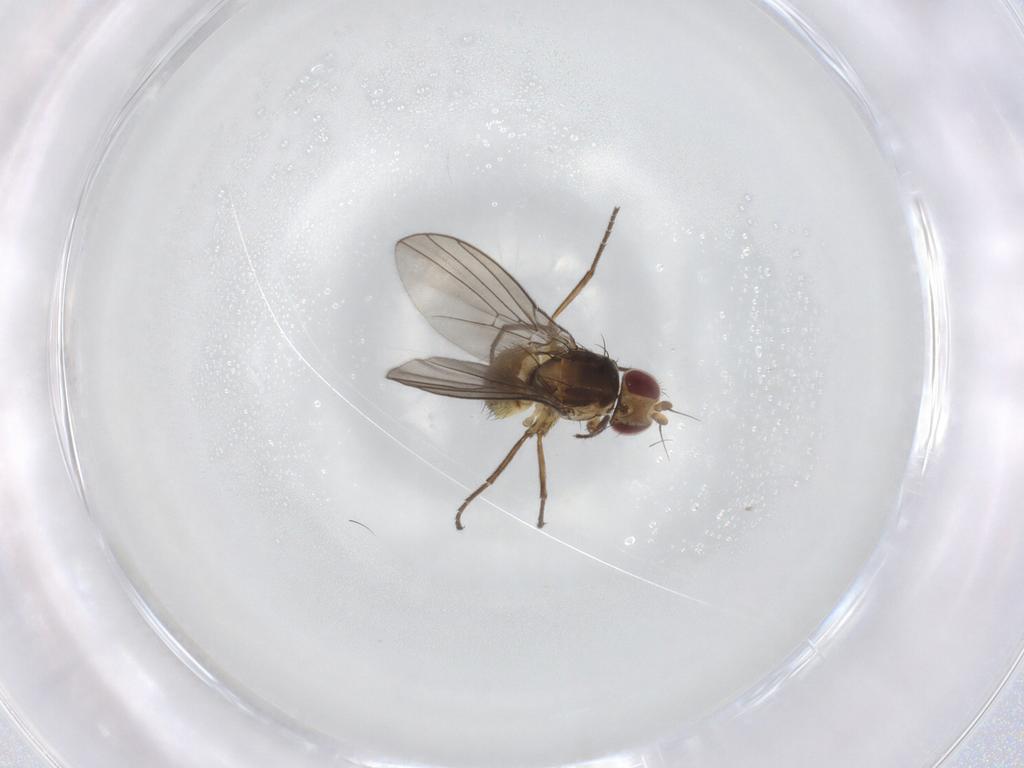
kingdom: Animalia
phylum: Arthropoda
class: Insecta
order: Diptera
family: Agromyzidae
